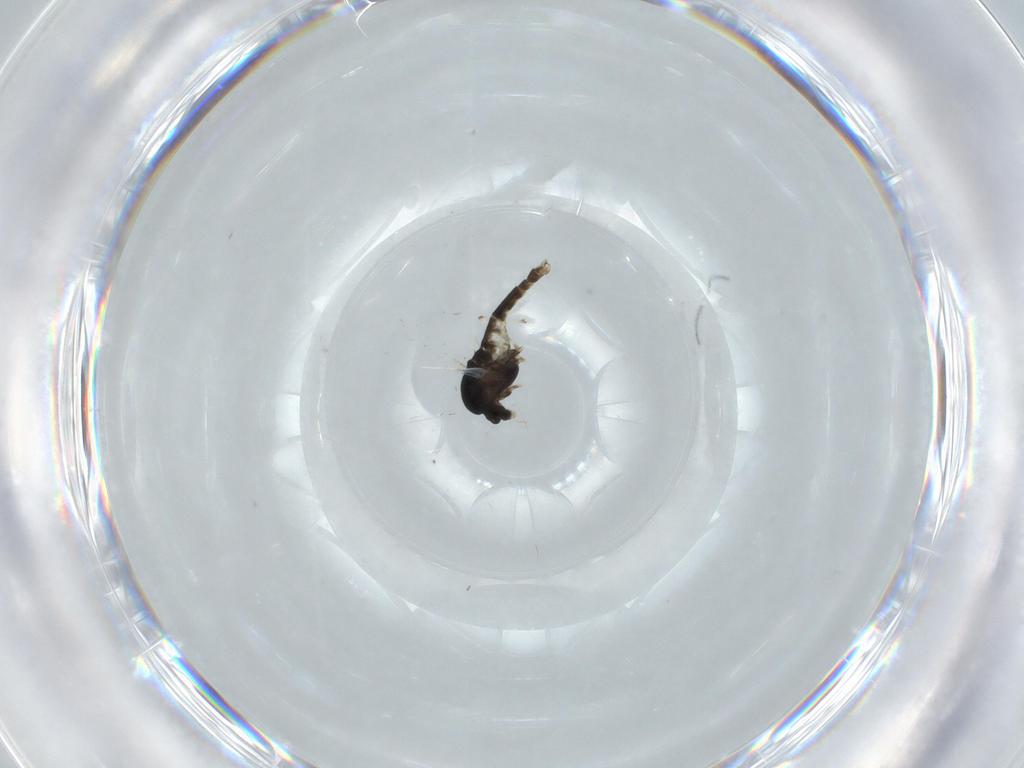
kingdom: Animalia
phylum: Arthropoda
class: Insecta
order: Diptera
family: Chironomidae
